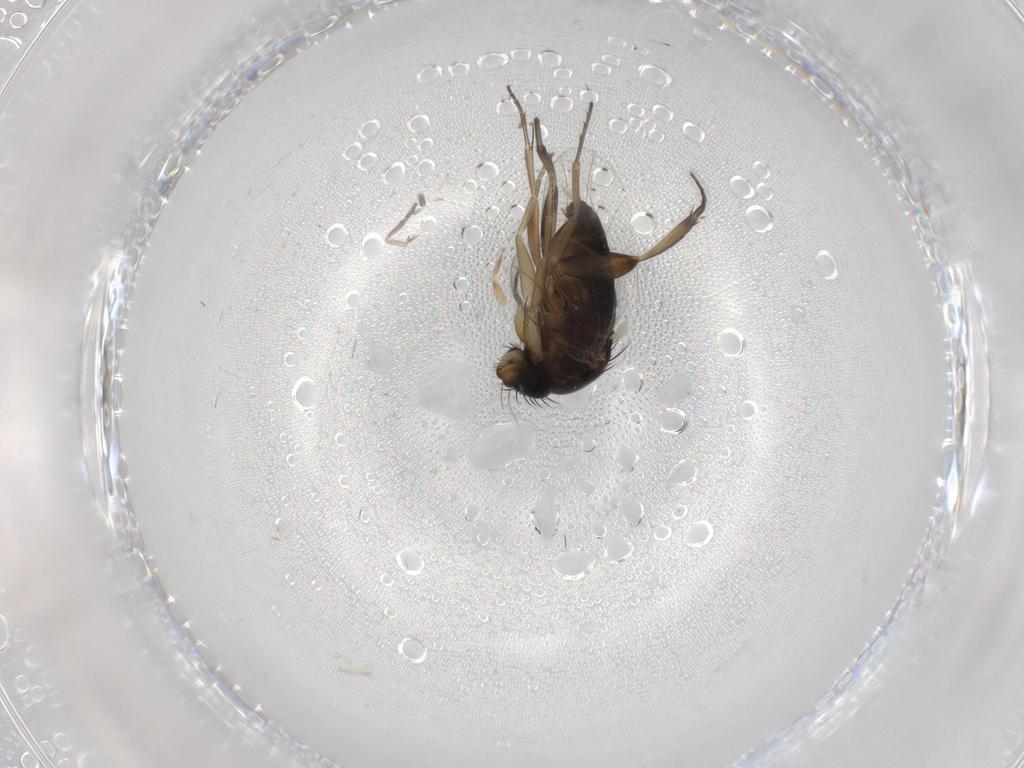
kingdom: Animalia
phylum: Arthropoda
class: Insecta
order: Diptera
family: Phoridae
